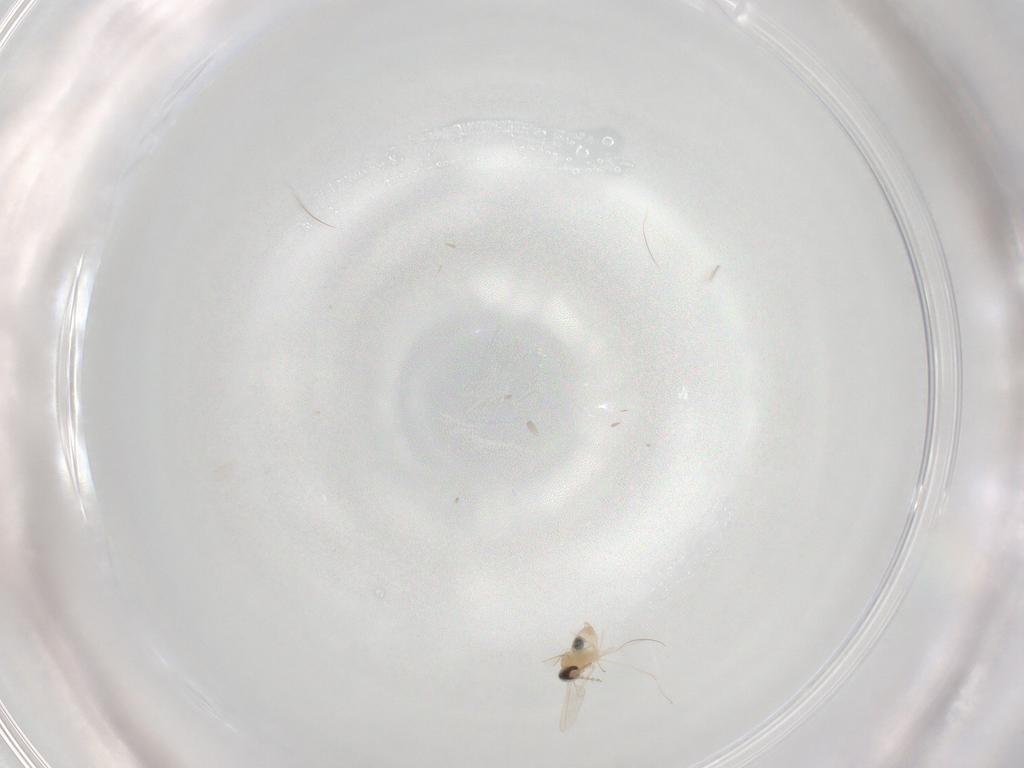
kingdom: Animalia
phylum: Arthropoda
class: Insecta
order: Diptera
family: Cecidomyiidae
